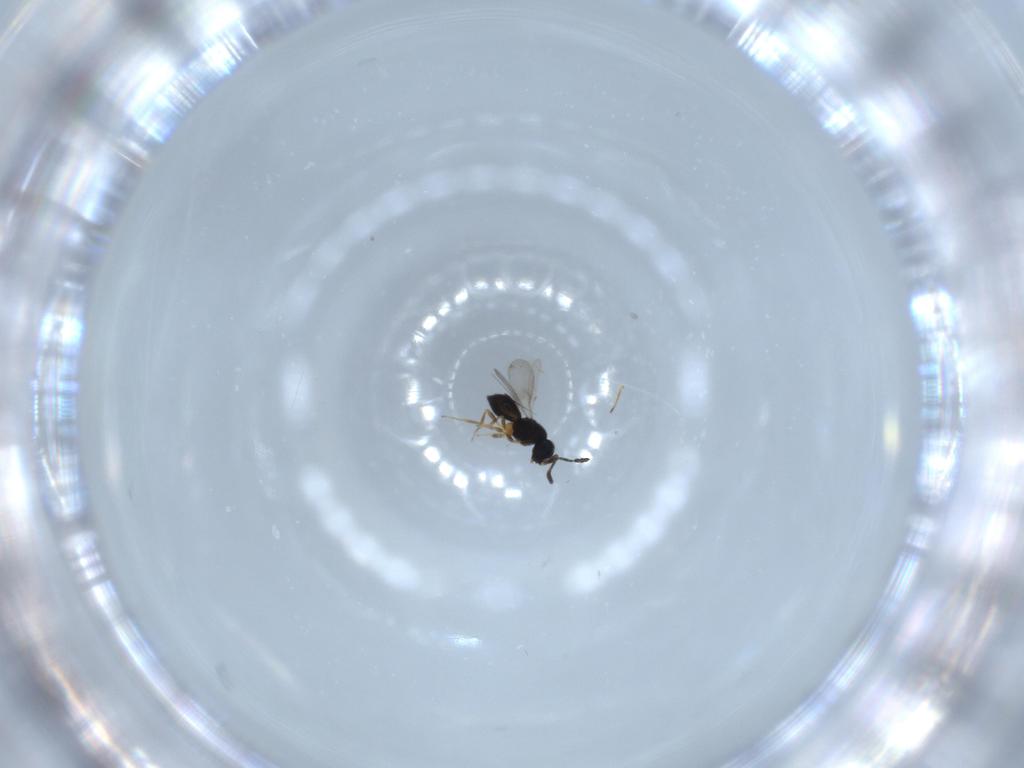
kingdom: Animalia
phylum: Arthropoda
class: Insecta
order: Hymenoptera
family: Scelionidae
